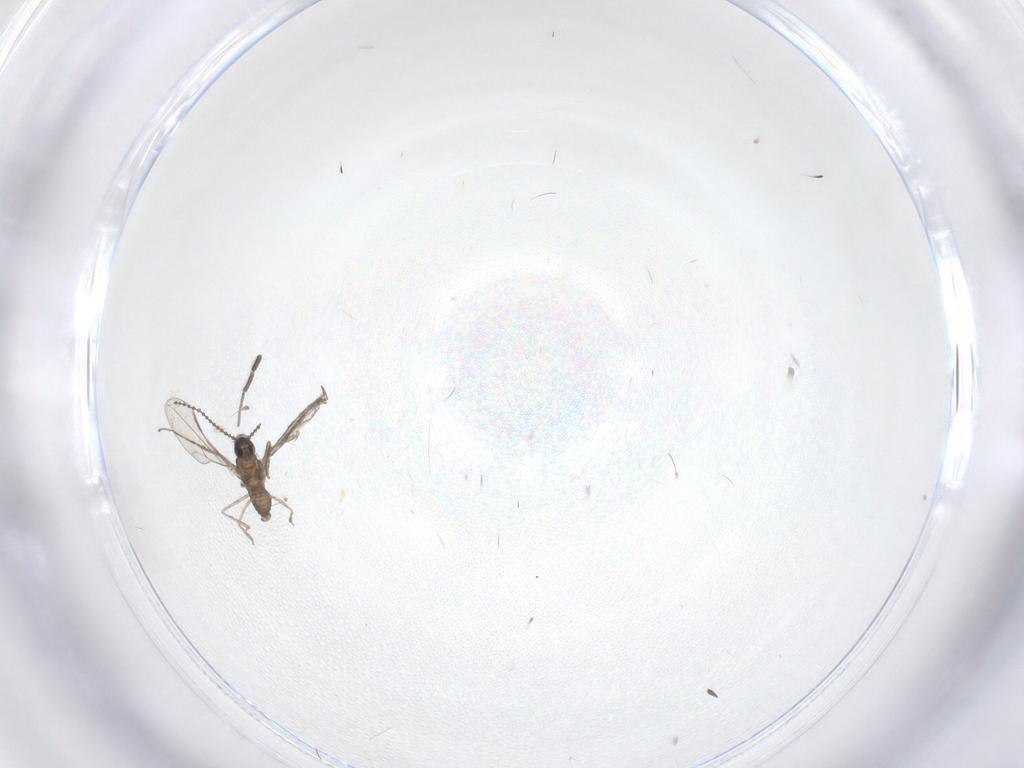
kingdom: Animalia
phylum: Arthropoda
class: Insecta
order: Diptera
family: Cecidomyiidae
